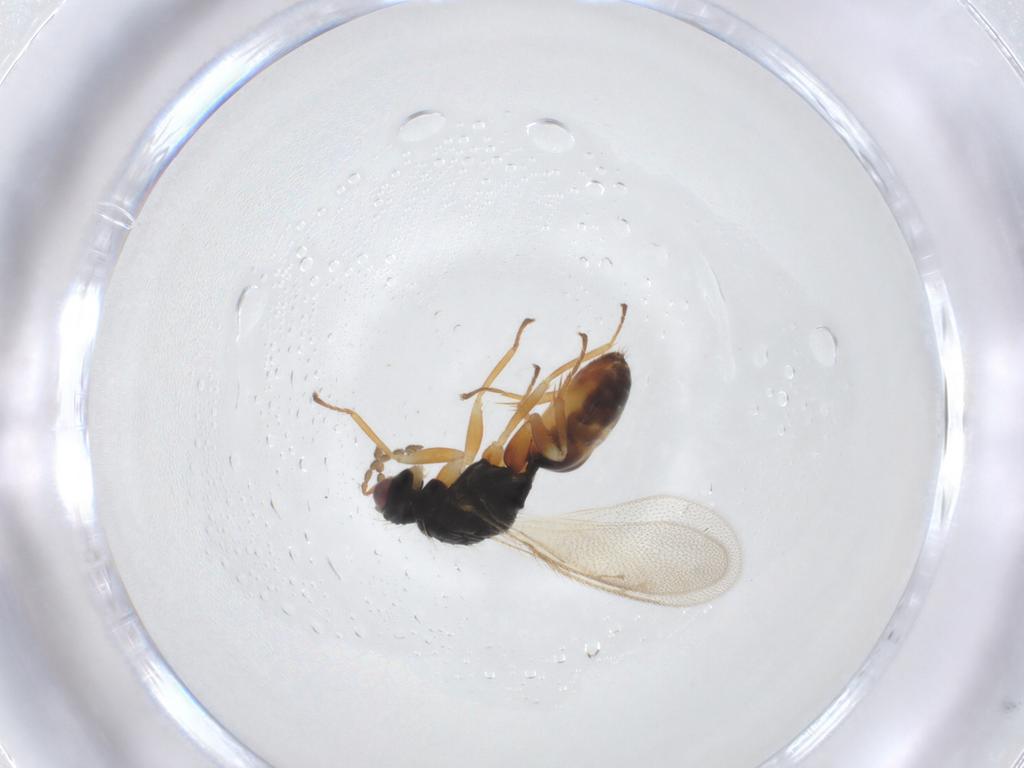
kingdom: Animalia
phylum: Arthropoda
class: Insecta
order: Hymenoptera
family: Eulophidae
